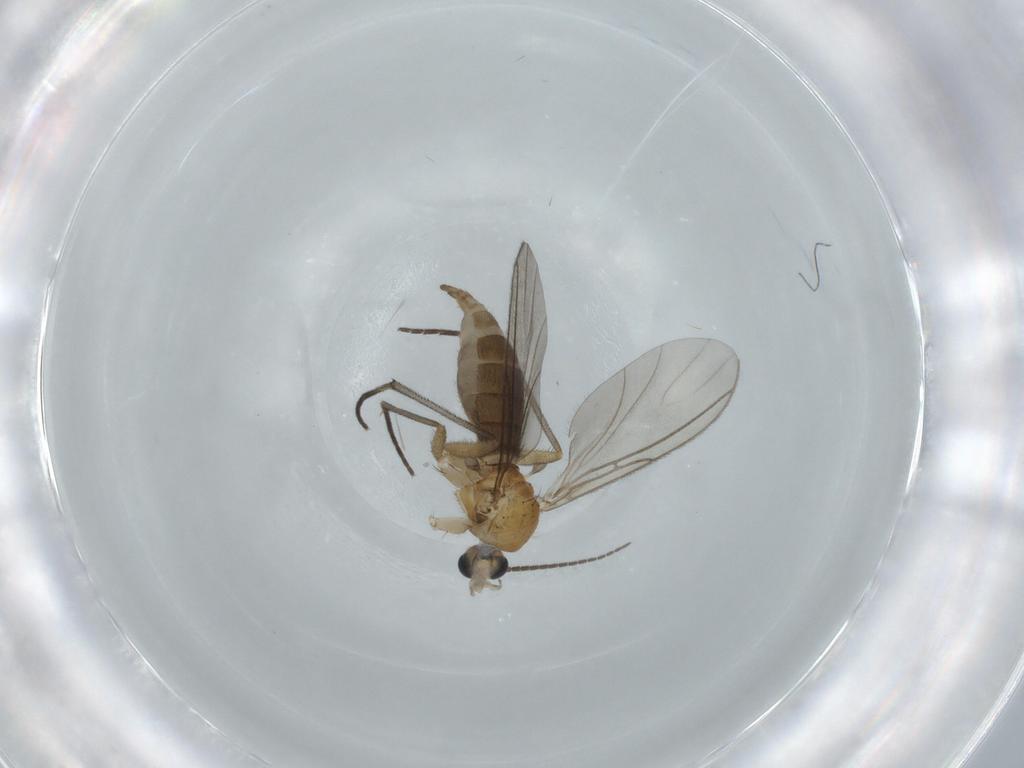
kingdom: Animalia
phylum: Arthropoda
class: Insecta
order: Diptera
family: Sciaridae
